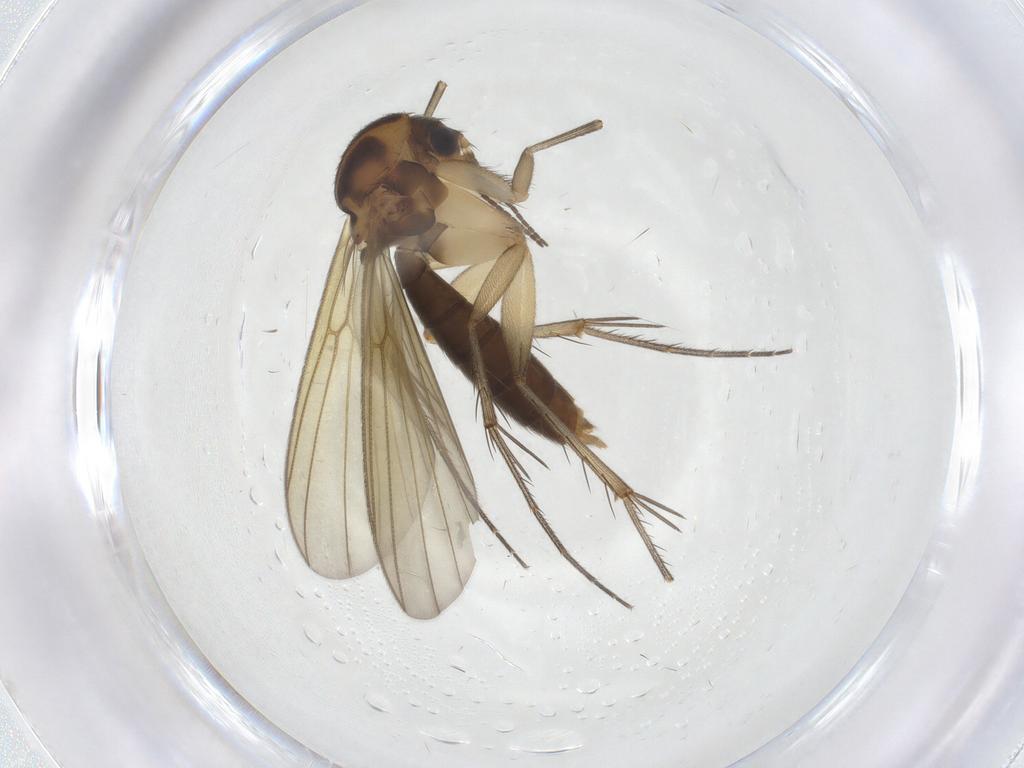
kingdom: Animalia
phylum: Arthropoda
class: Insecta
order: Diptera
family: Mycetophilidae
